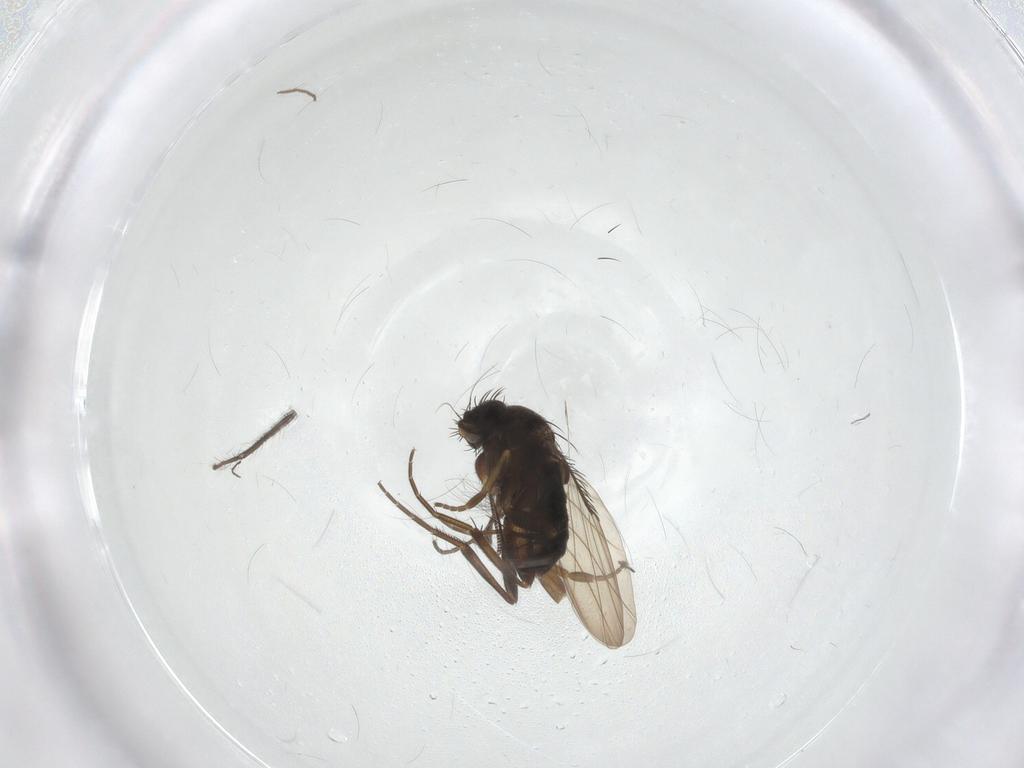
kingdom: Animalia
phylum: Arthropoda
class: Insecta
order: Diptera
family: Phoridae
